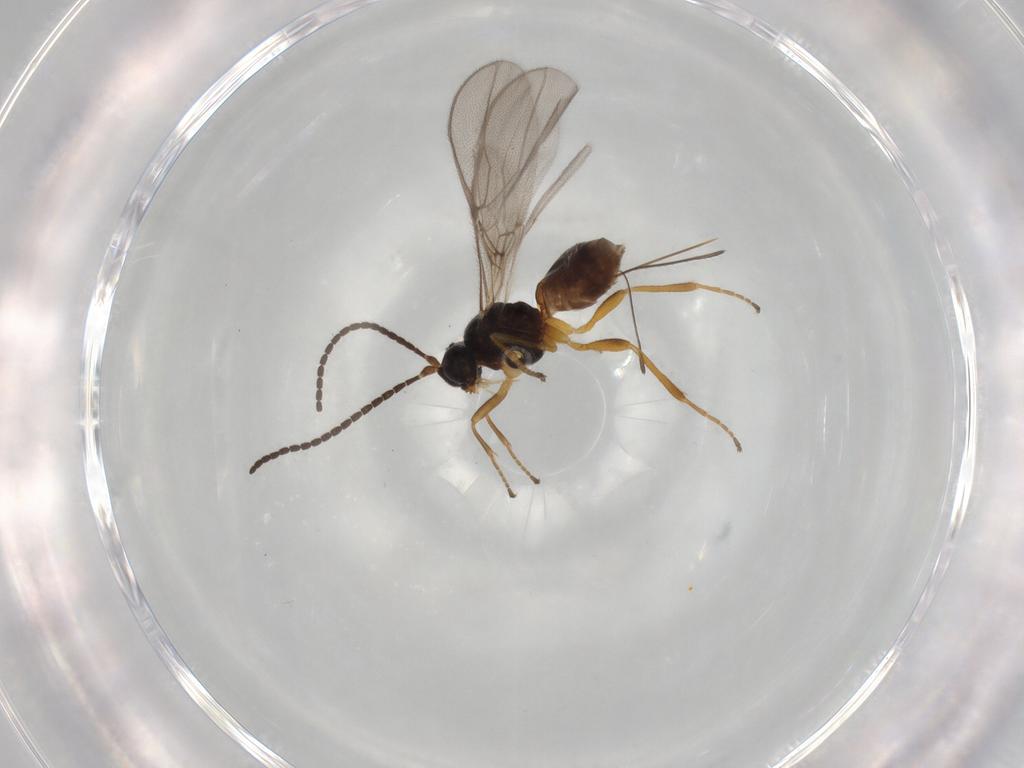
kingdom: Animalia
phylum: Arthropoda
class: Insecta
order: Hymenoptera
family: Braconidae
